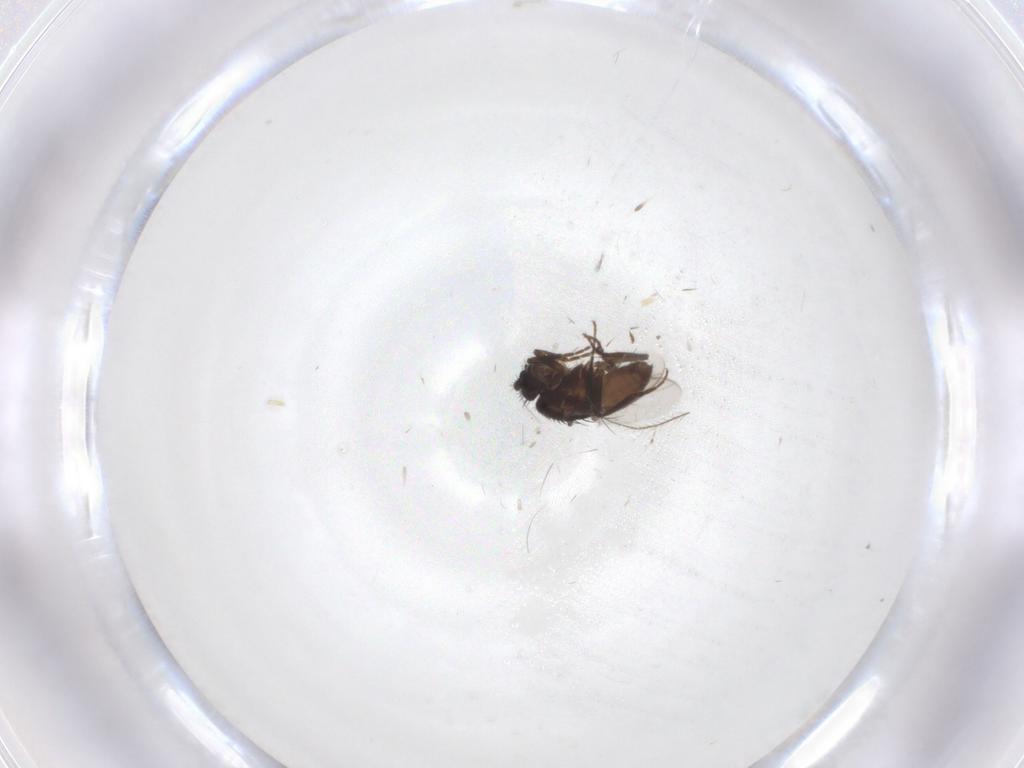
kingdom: Animalia
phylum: Arthropoda
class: Insecta
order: Diptera
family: Sphaeroceridae
